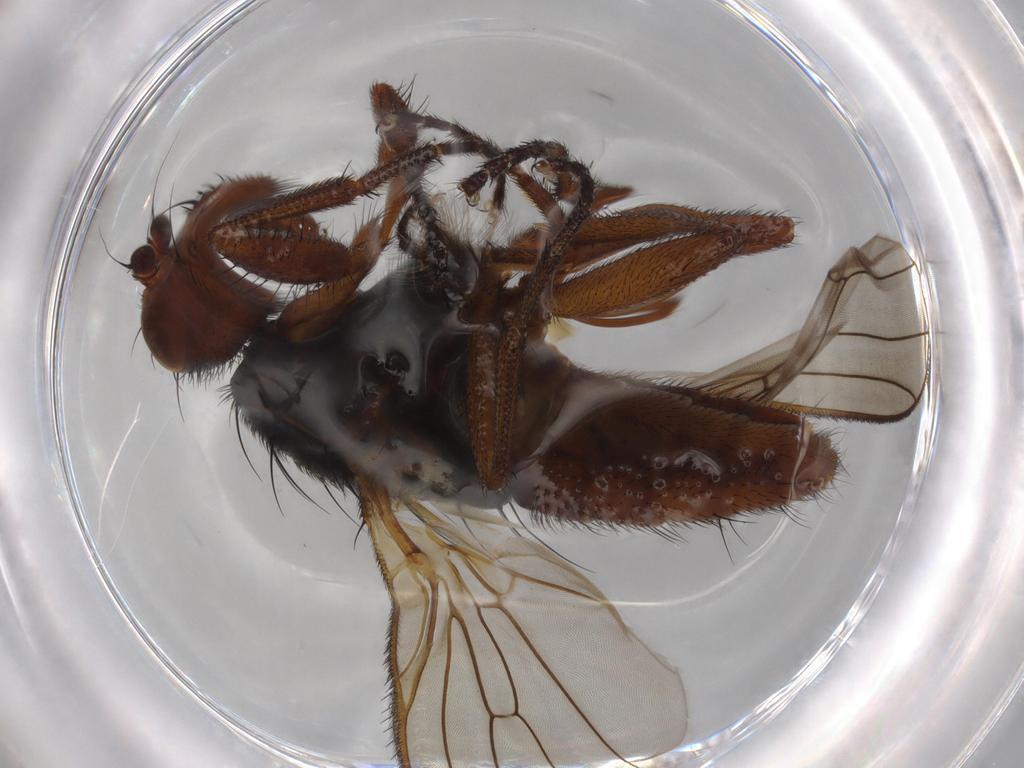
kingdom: Animalia
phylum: Arthropoda
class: Insecta
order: Diptera
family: Heleomyzidae
